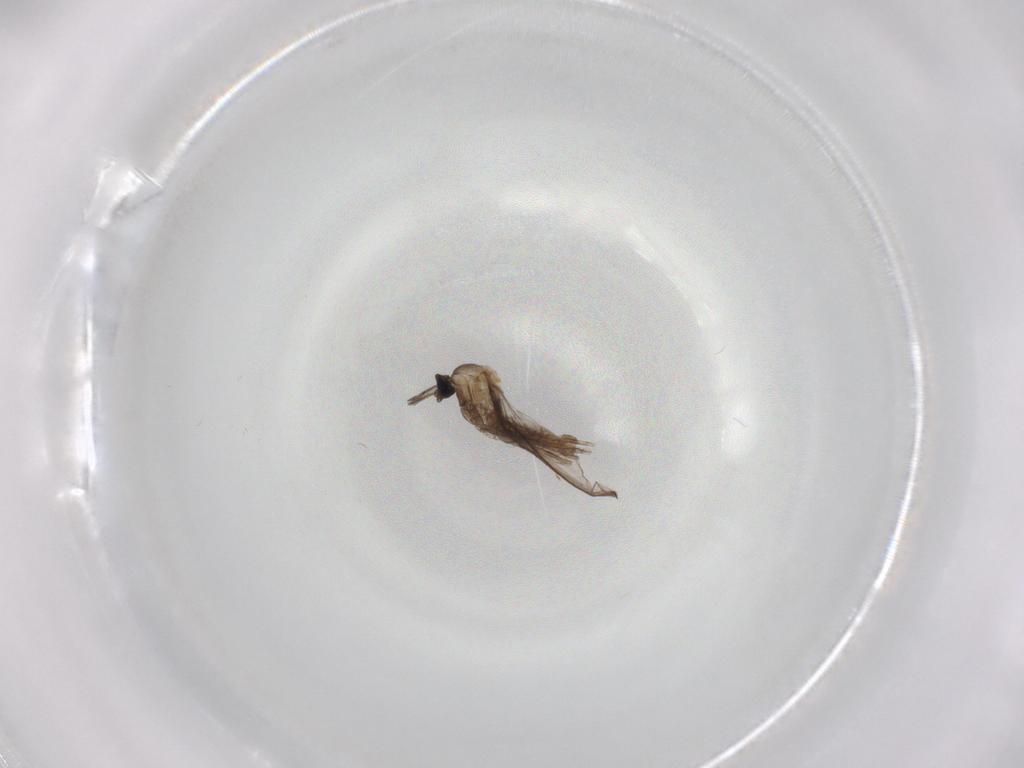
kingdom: Animalia
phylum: Arthropoda
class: Insecta
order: Diptera
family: Cecidomyiidae
